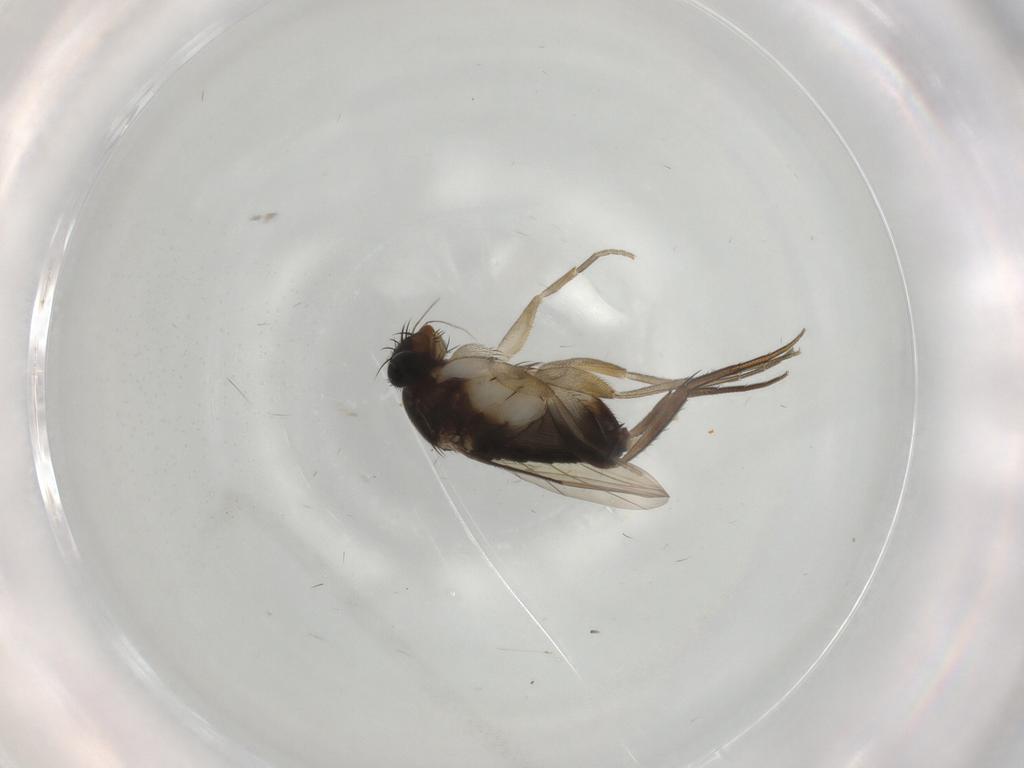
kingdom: Animalia
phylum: Arthropoda
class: Insecta
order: Diptera
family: Phoridae
